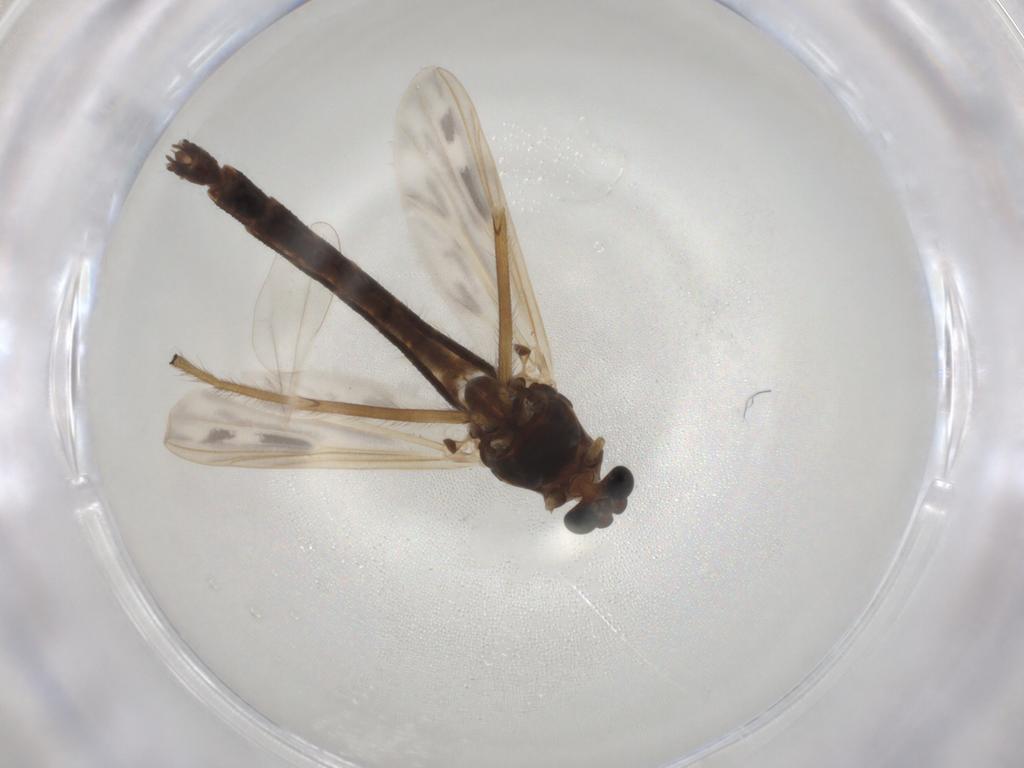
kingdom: Animalia
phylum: Arthropoda
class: Insecta
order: Diptera
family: Chironomidae
